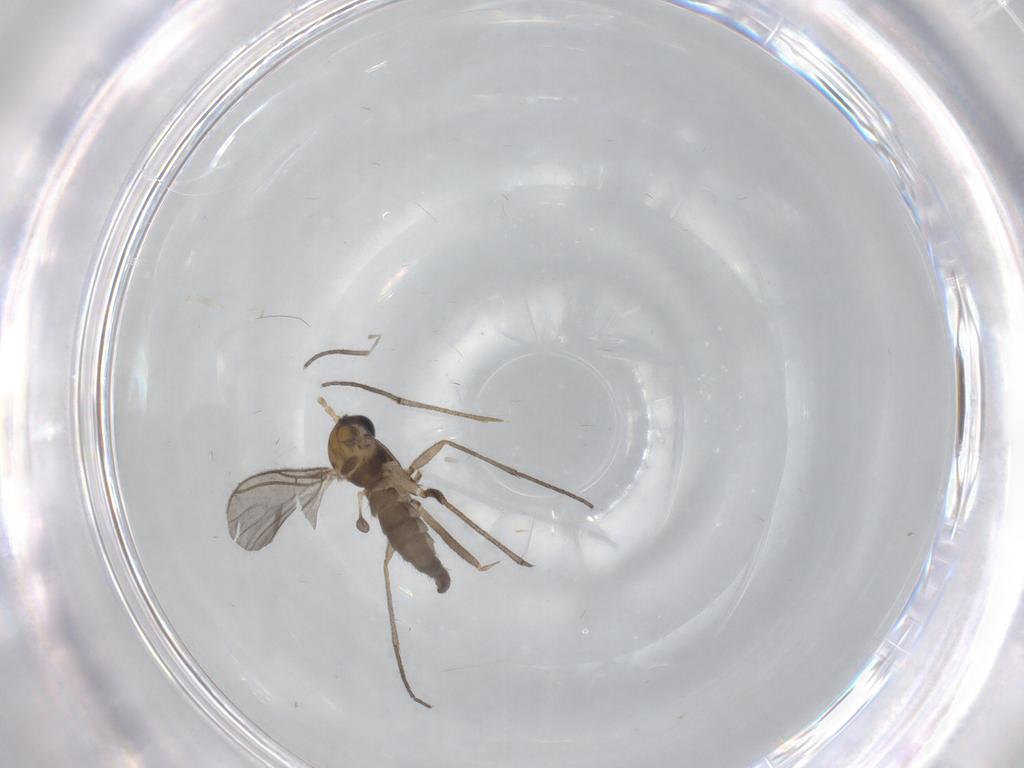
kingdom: Animalia
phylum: Arthropoda
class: Insecta
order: Diptera
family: Sciaridae
